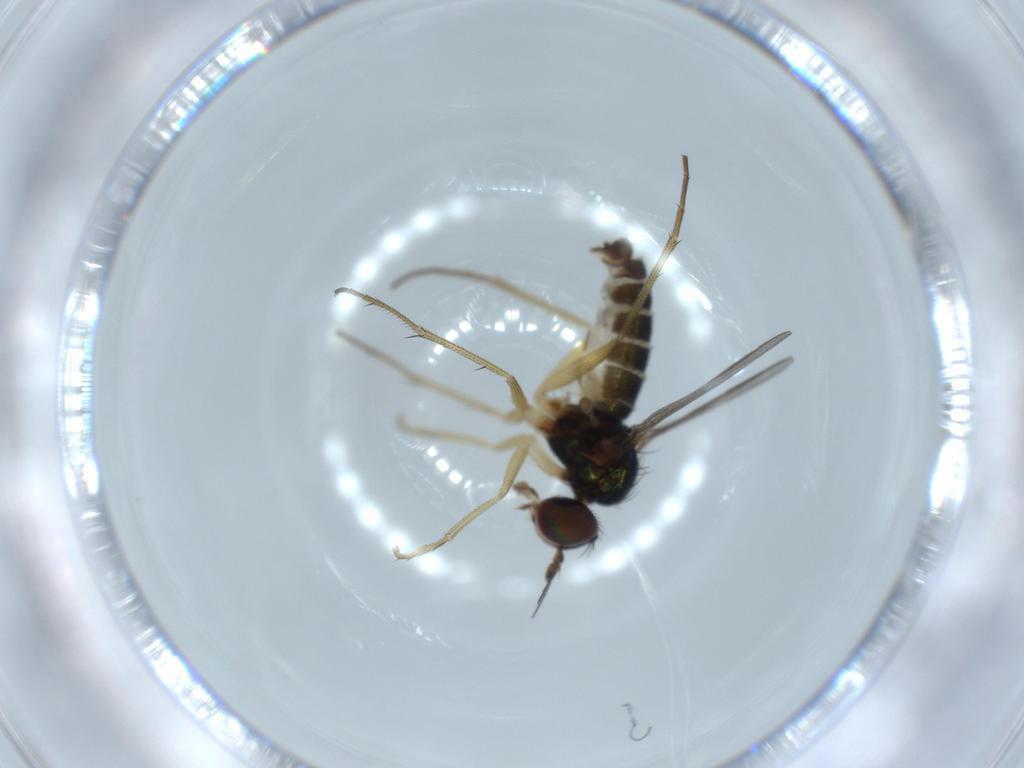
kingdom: Animalia
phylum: Arthropoda
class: Insecta
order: Diptera
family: Dolichopodidae
